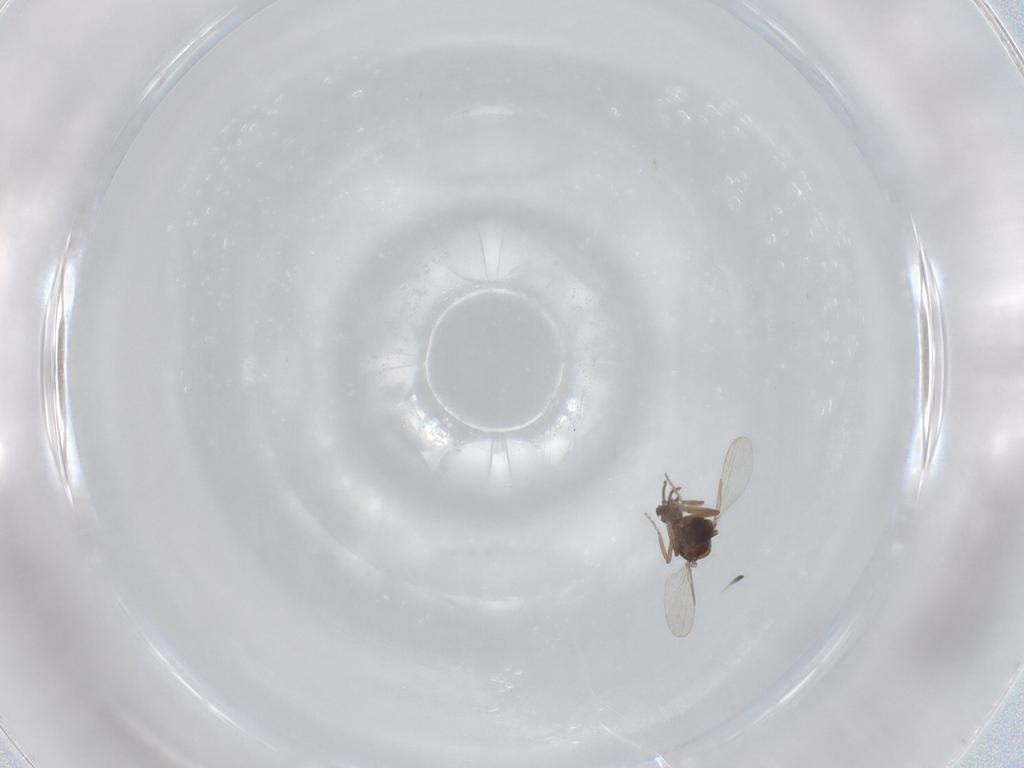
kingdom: Animalia
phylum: Arthropoda
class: Insecta
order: Diptera
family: Ceratopogonidae
